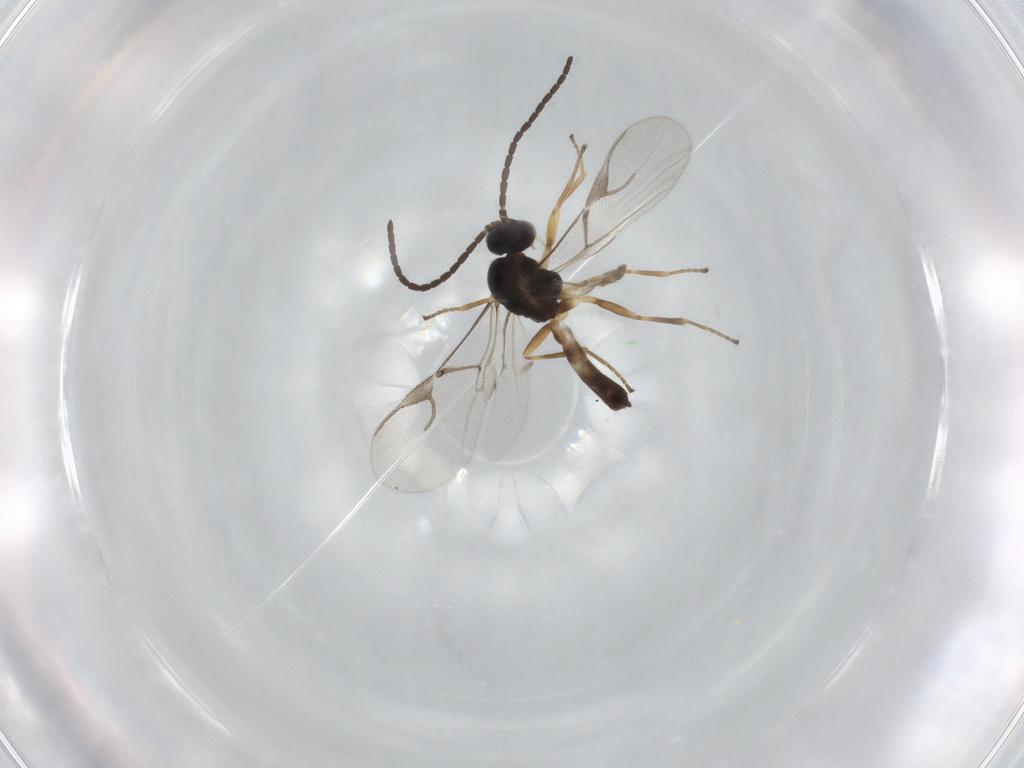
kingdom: Animalia
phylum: Arthropoda
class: Insecta
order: Hymenoptera
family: Braconidae
